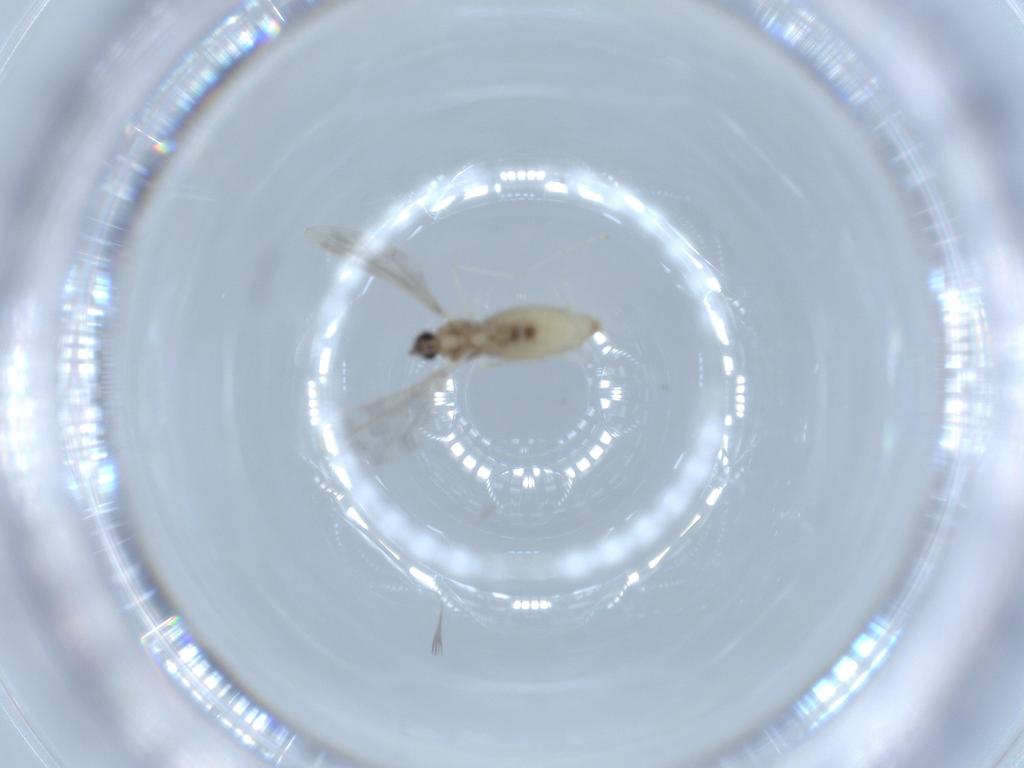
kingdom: Animalia
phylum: Arthropoda
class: Insecta
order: Diptera
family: Cecidomyiidae
